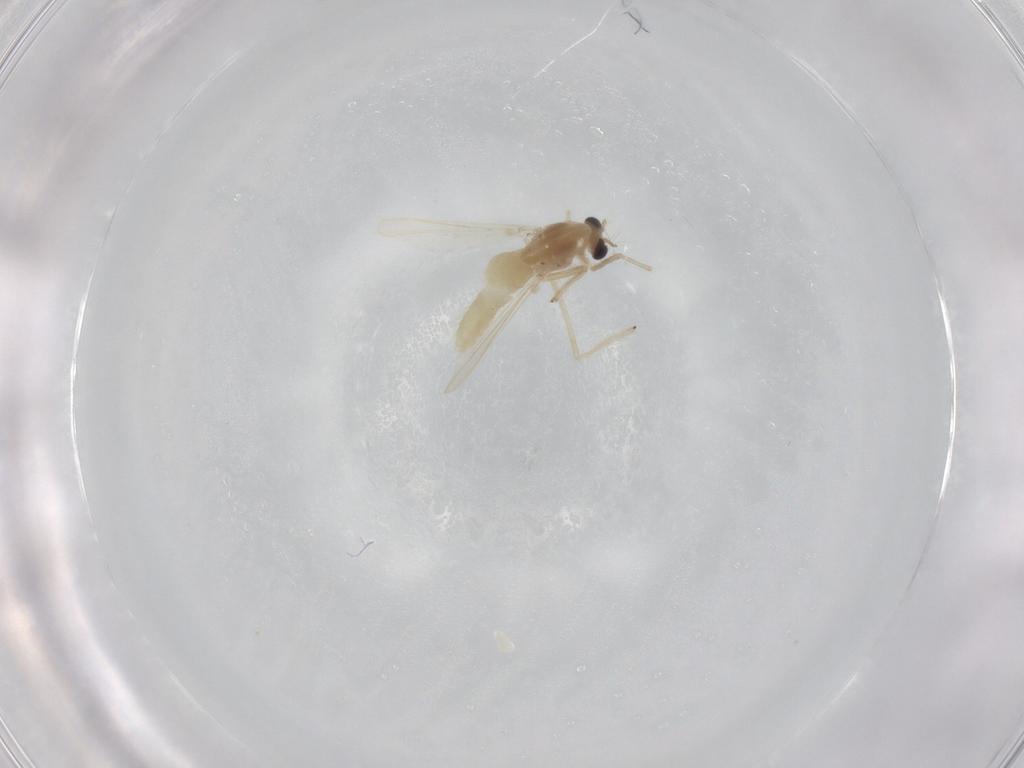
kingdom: Animalia
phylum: Arthropoda
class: Insecta
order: Diptera
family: Chironomidae
